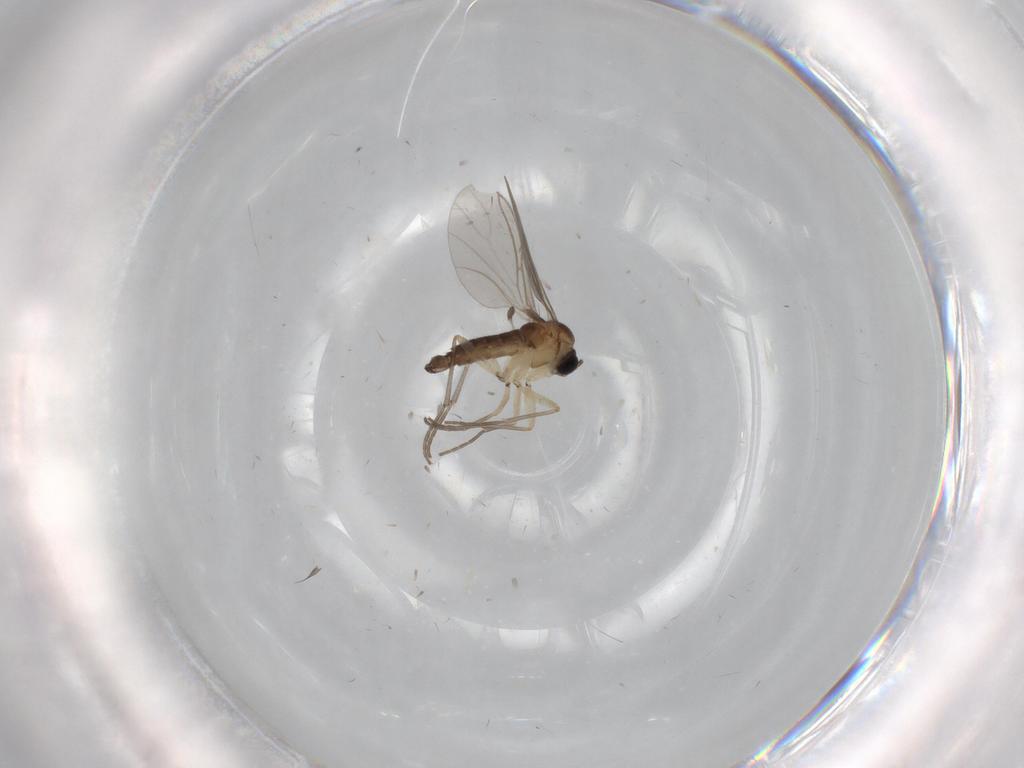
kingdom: Animalia
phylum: Arthropoda
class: Insecta
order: Diptera
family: Sciaridae
